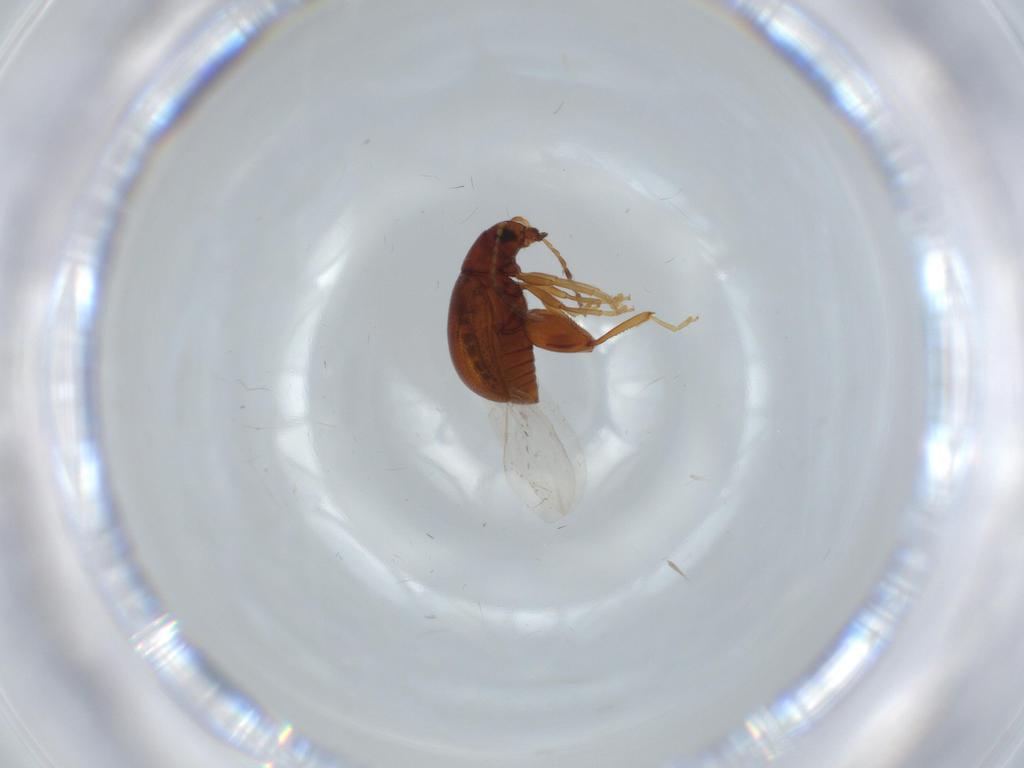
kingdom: Animalia
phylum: Arthropoda
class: Insecta
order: Coleoptera
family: Chrysomelidae
